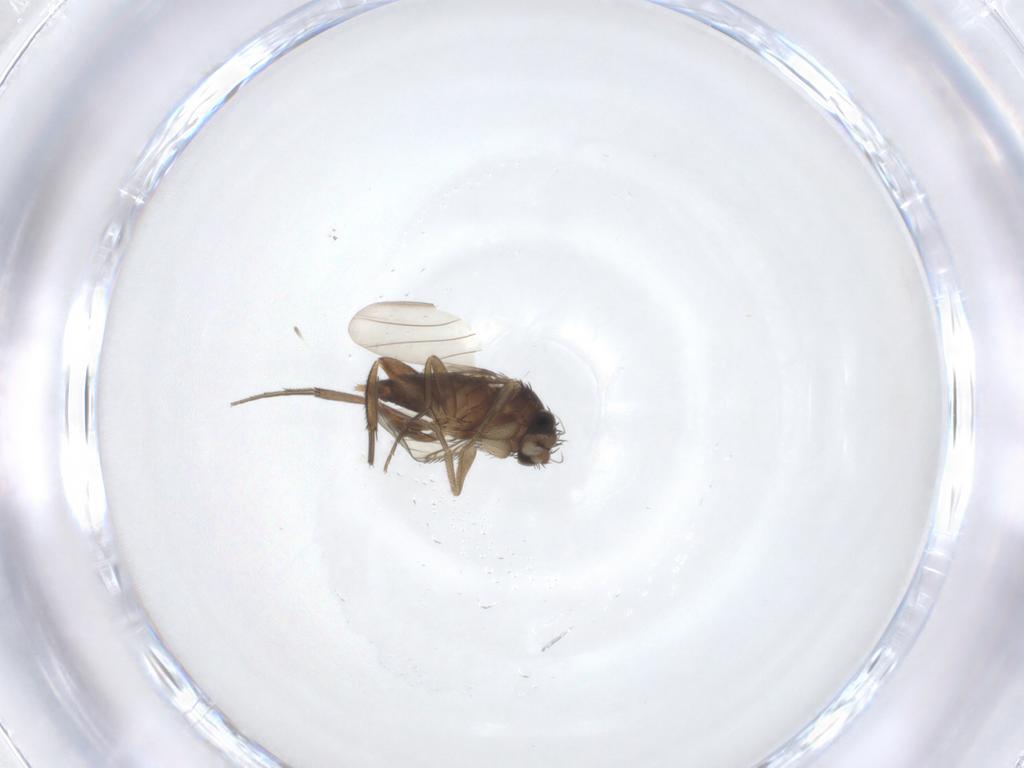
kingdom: Animalia
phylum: Arthropoda
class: Insecta
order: Diptera
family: Phoridae
